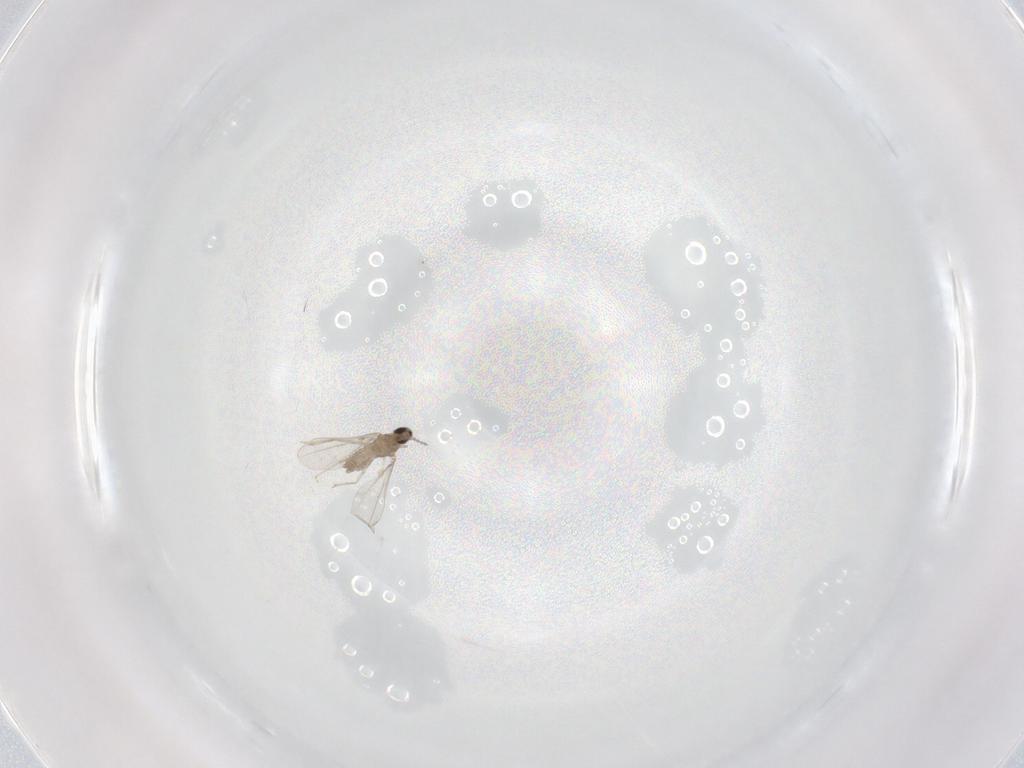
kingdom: Animalia
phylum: Arthropoda
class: Insecta
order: Diptera
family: Cecidomyiidae
